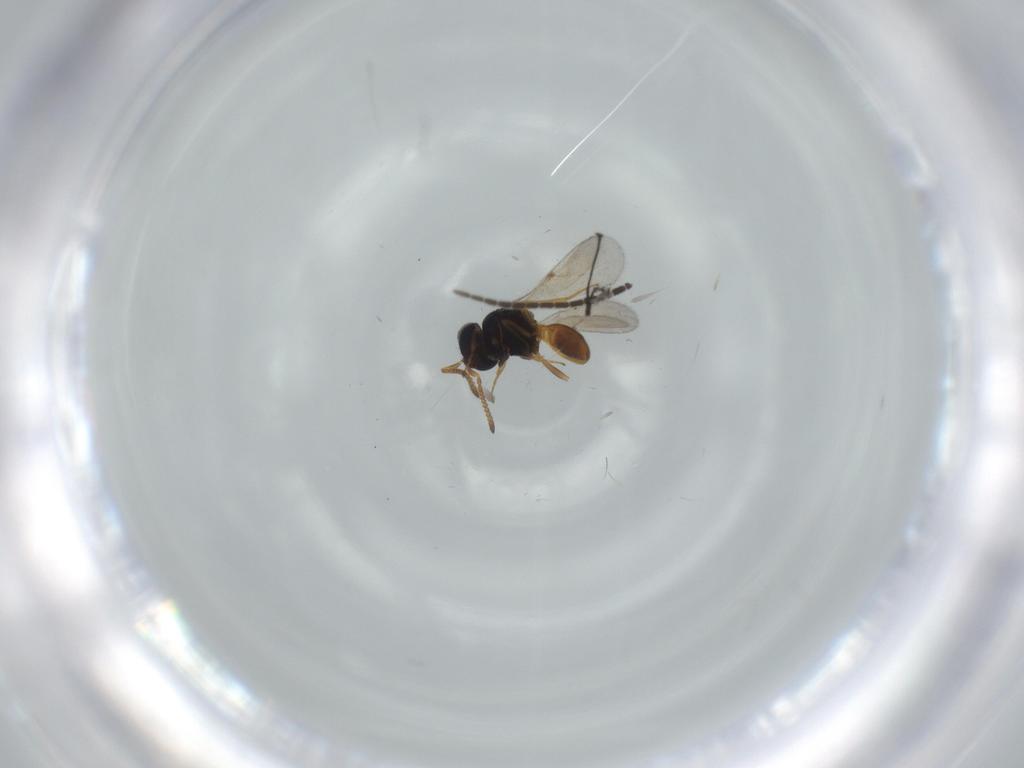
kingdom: Animalia
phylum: Arthropoda
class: Insecta
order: Hymenoptera
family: Scelionidae
